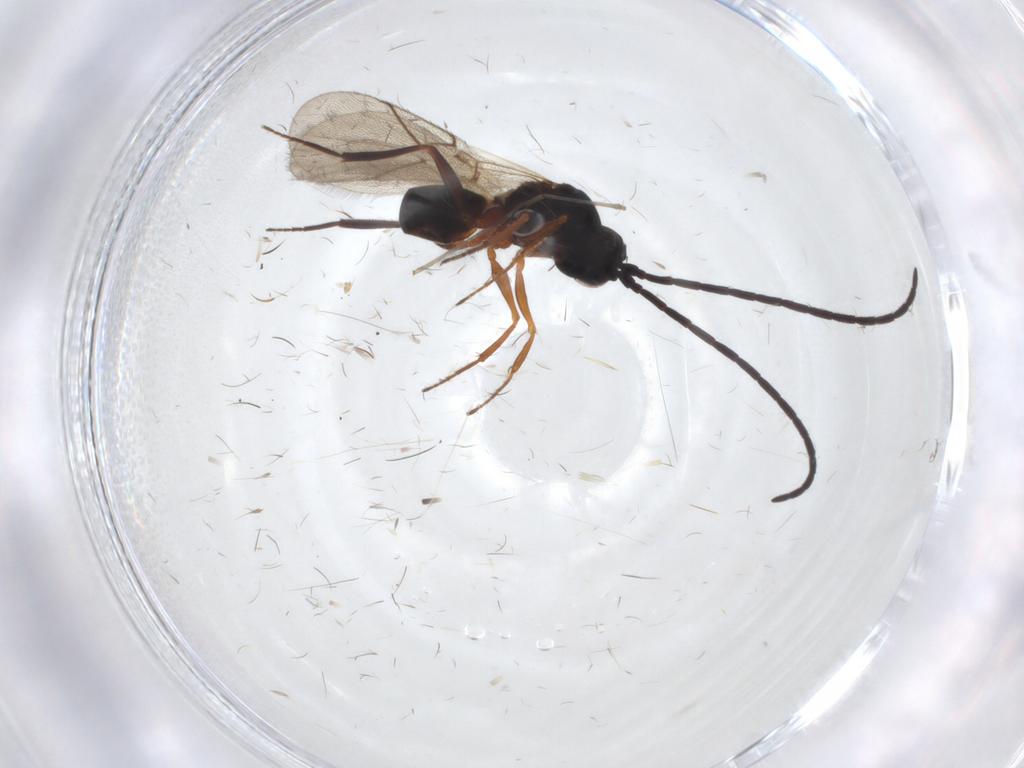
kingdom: Animalia
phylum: Arthropoda
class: Insecta
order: Hymenoptera
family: Figitidae
